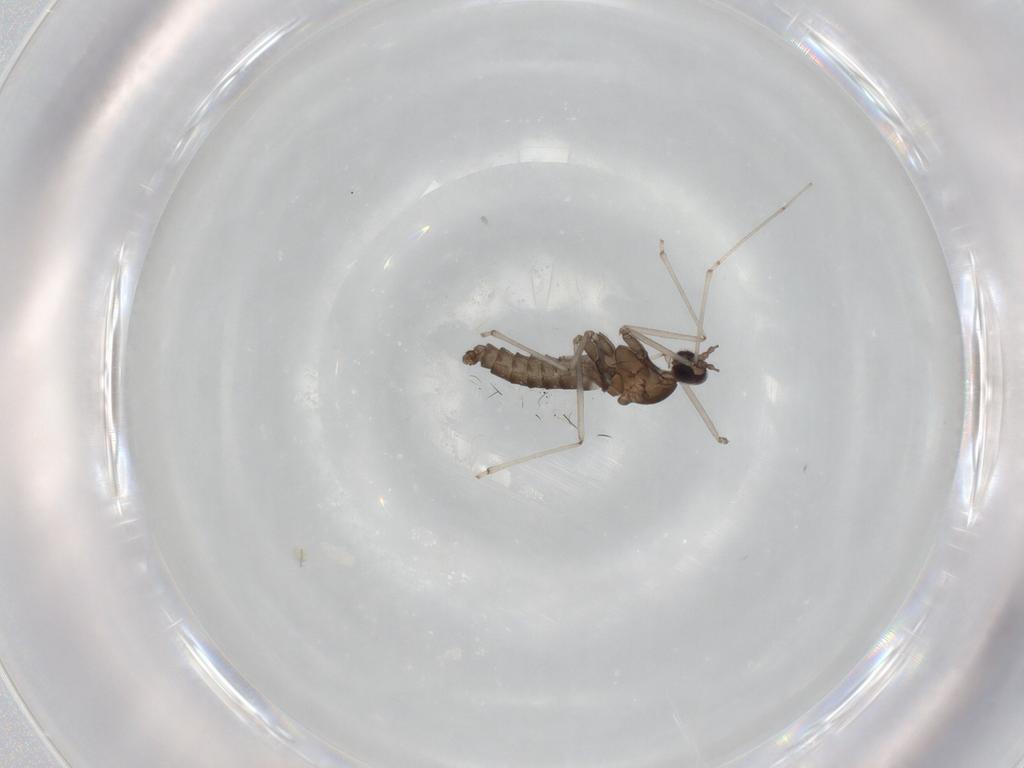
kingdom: Animalia
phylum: Arthropoda
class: Insecta
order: Diptera
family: Cecidomyiidae
